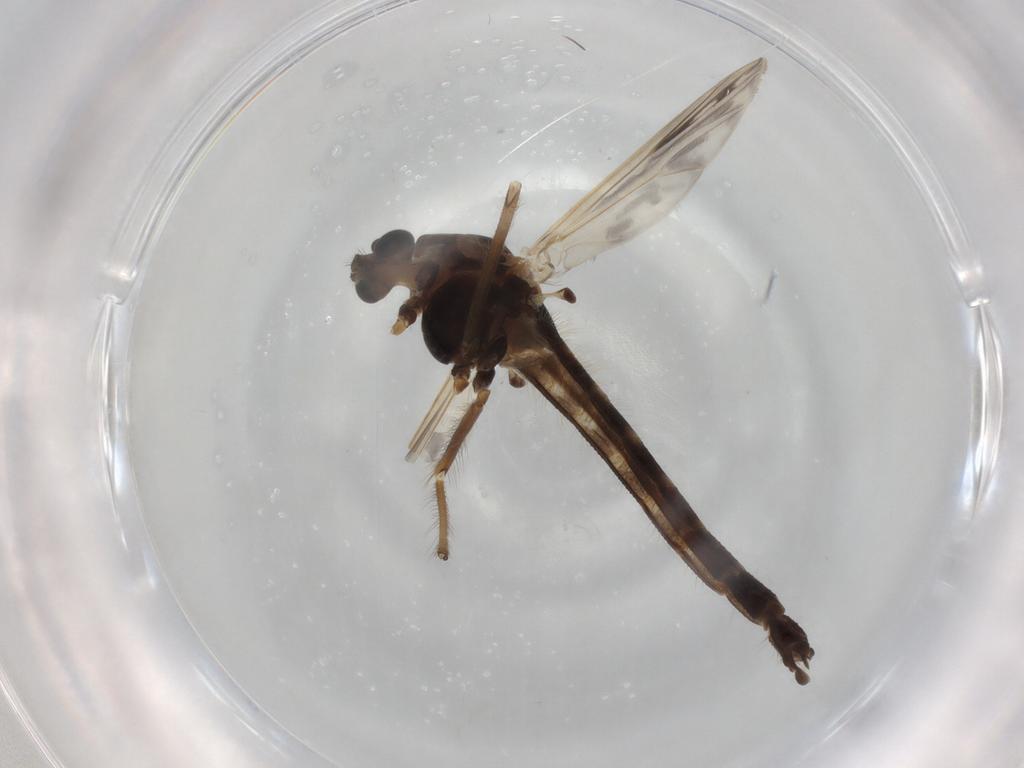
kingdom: Animalia
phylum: Arthropoda
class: Insecta
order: Diptera
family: Chironomidae
